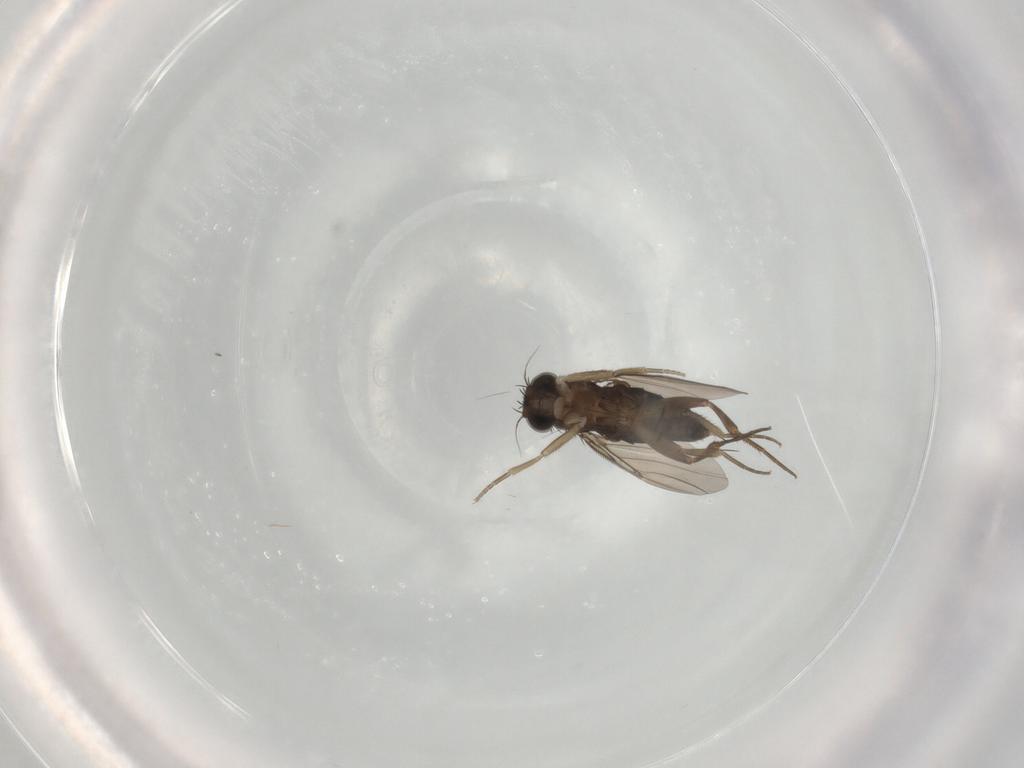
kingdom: Animalia
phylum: Arthropoda
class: Insecta
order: Diptera
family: Phoridae
